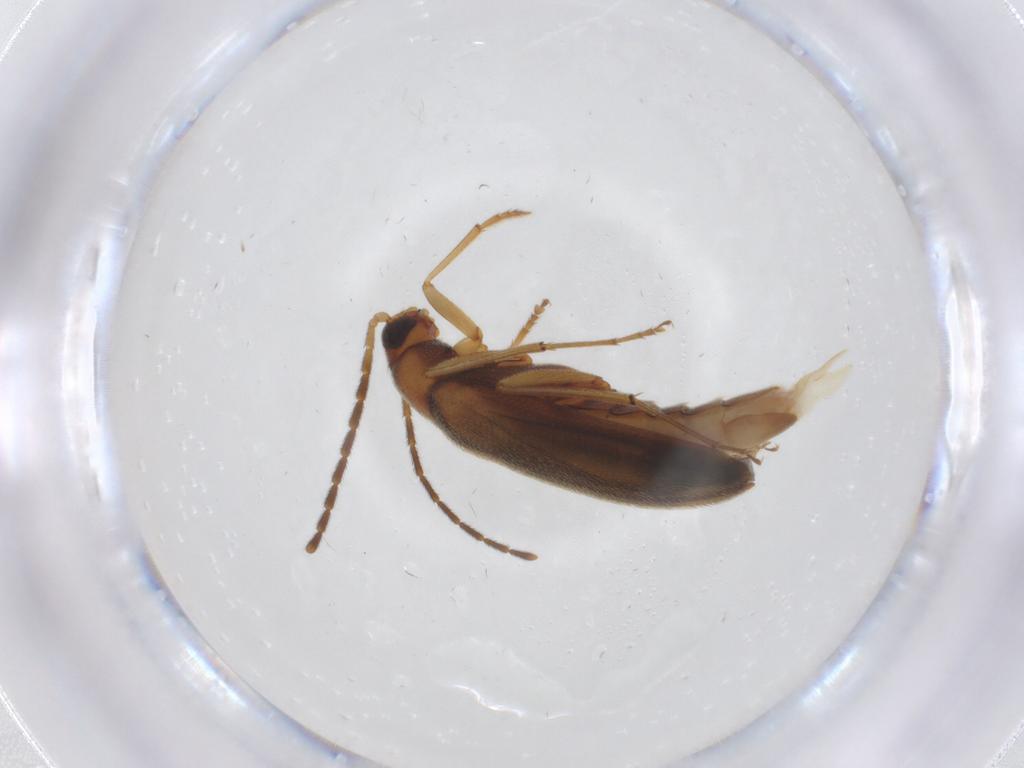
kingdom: Animalia
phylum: Arthropoda
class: Insecta
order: Coleoptera
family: Melandryidae
